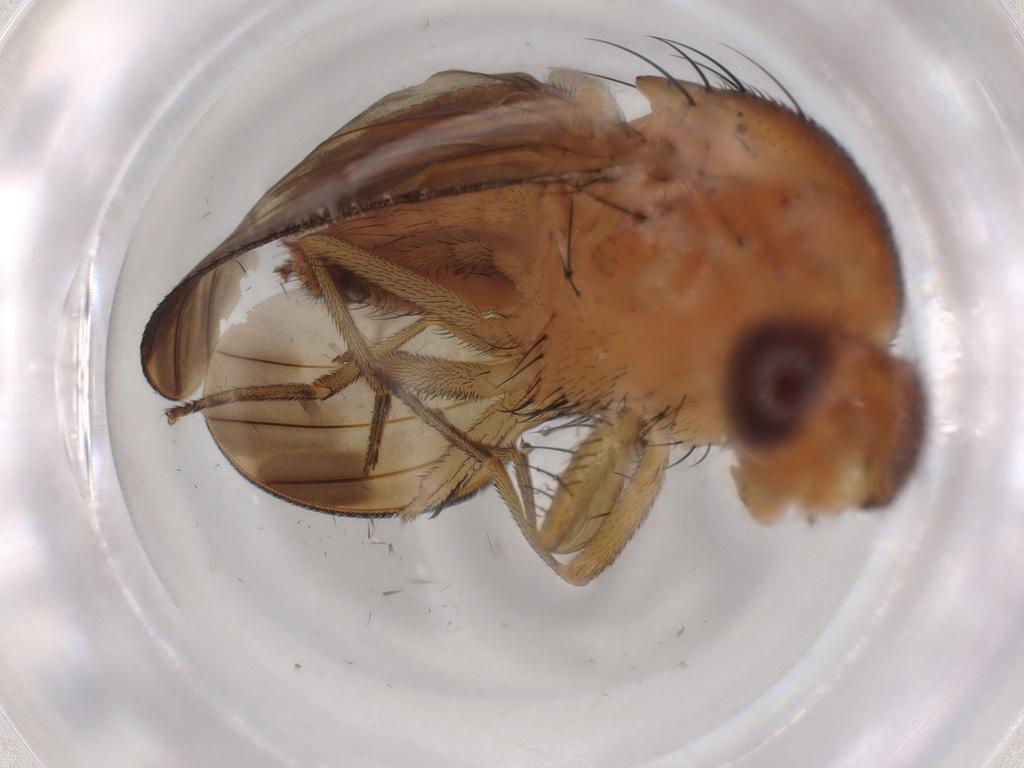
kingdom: Animalia
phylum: Arthropoda
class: Insecta
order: Diptera
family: Lauxaniidae
